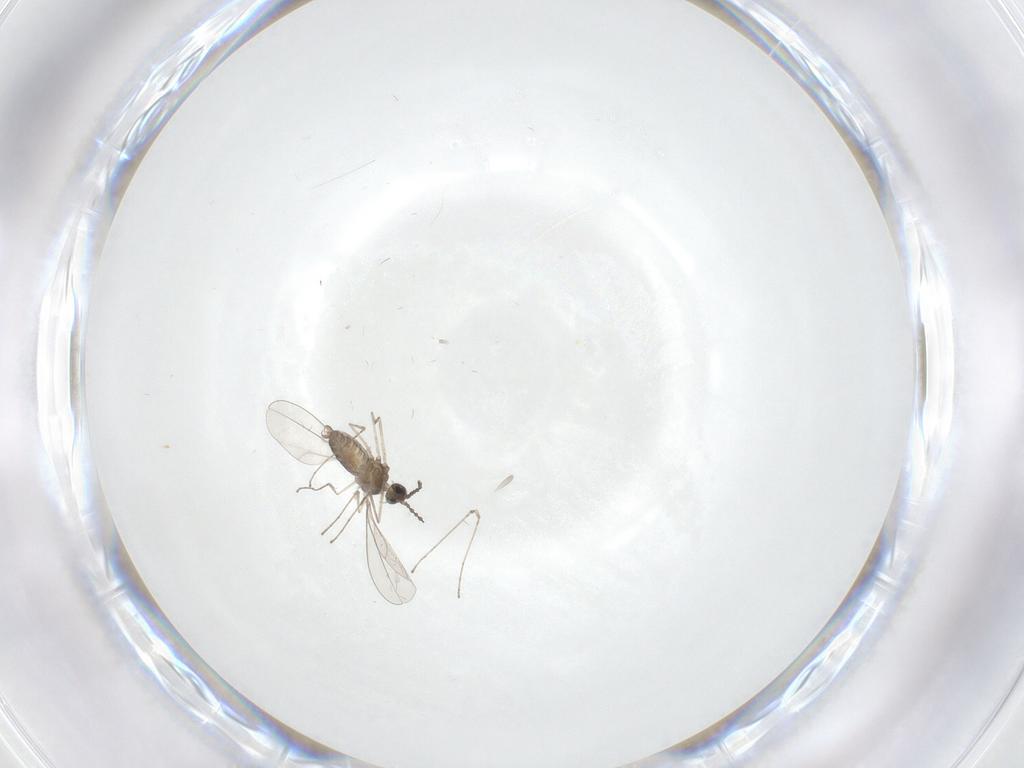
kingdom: Animalia
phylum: Arthropoda
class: Insecta
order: Diptera
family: Cecidomyiidae
